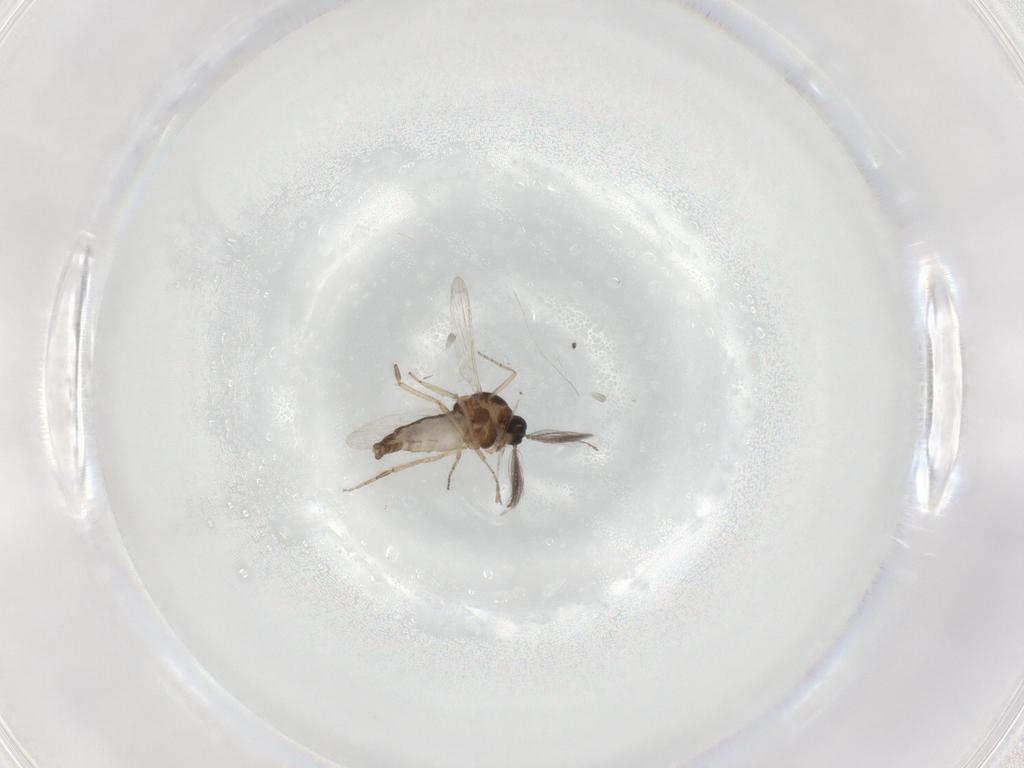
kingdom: Animalia
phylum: Arthropoda
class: Insecta
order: Diptera
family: Ceratopogonidae
